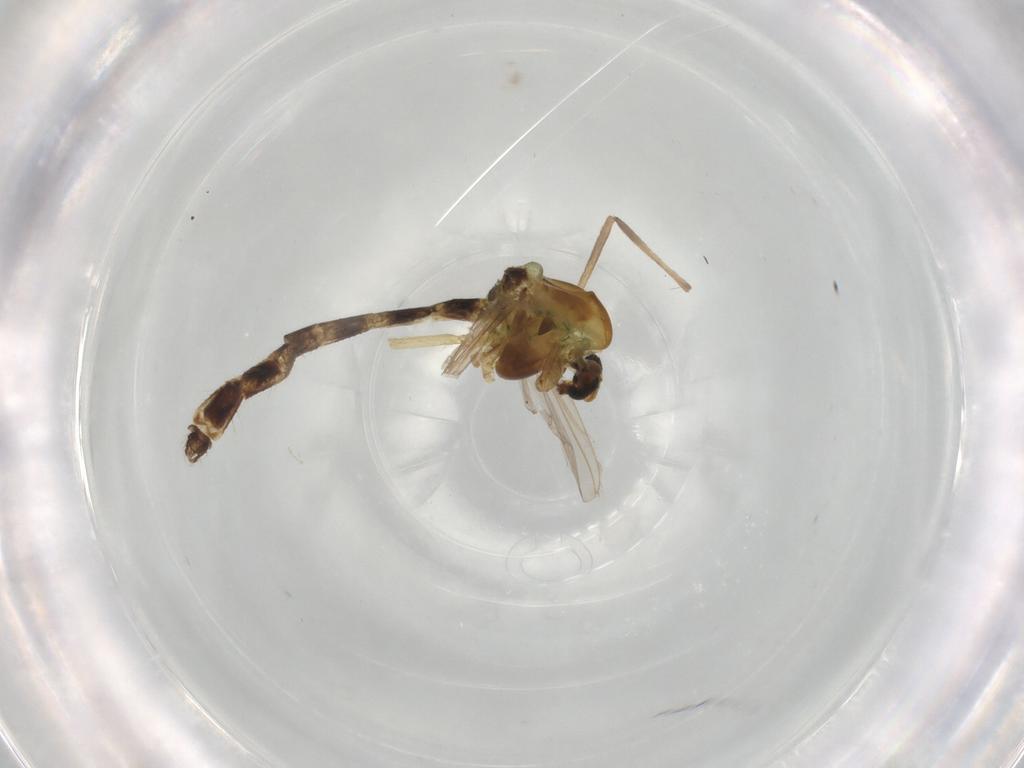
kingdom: Animalia
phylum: Arthropoda
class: Insecta
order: Diptera
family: Chironomidae
